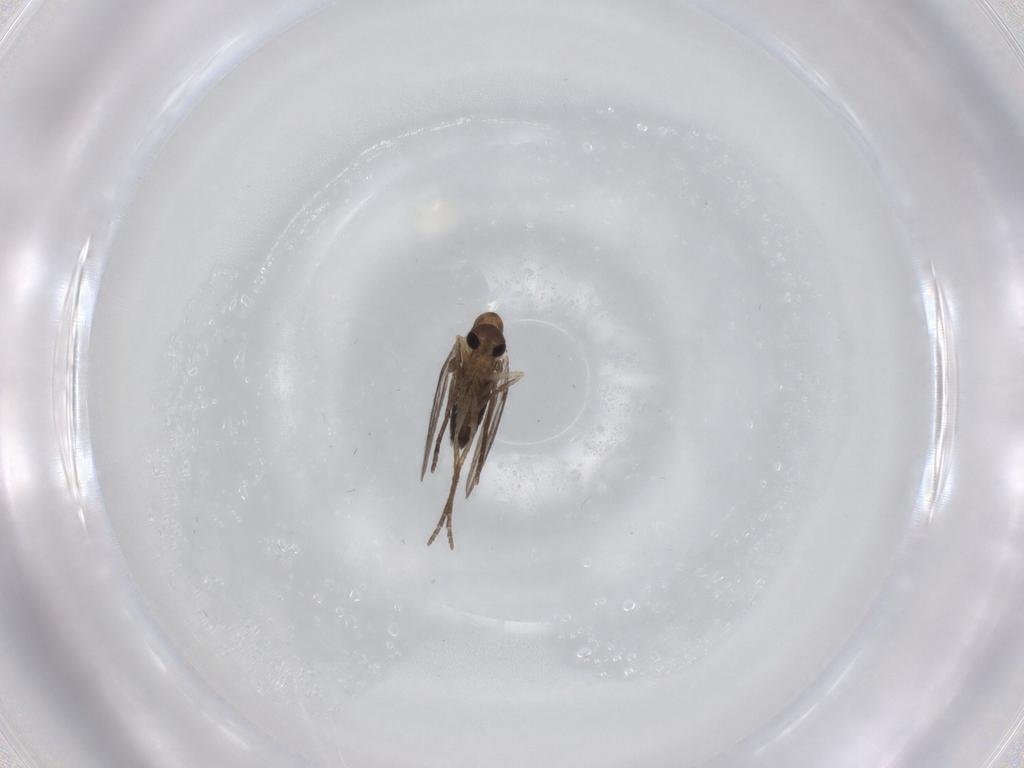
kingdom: Animalia
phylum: Arthropoda
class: Insecta
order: Diptera
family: Psychodidae
